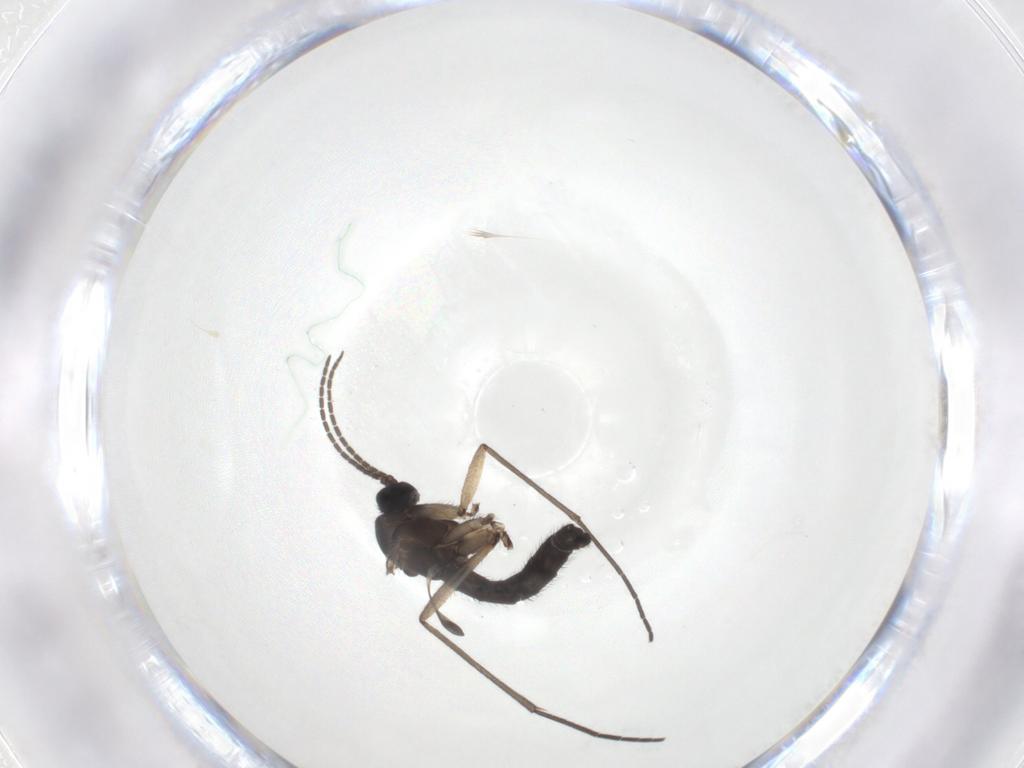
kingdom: Animalia
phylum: Arthropoda
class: Insecta
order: Diptera
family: Sciaridae
